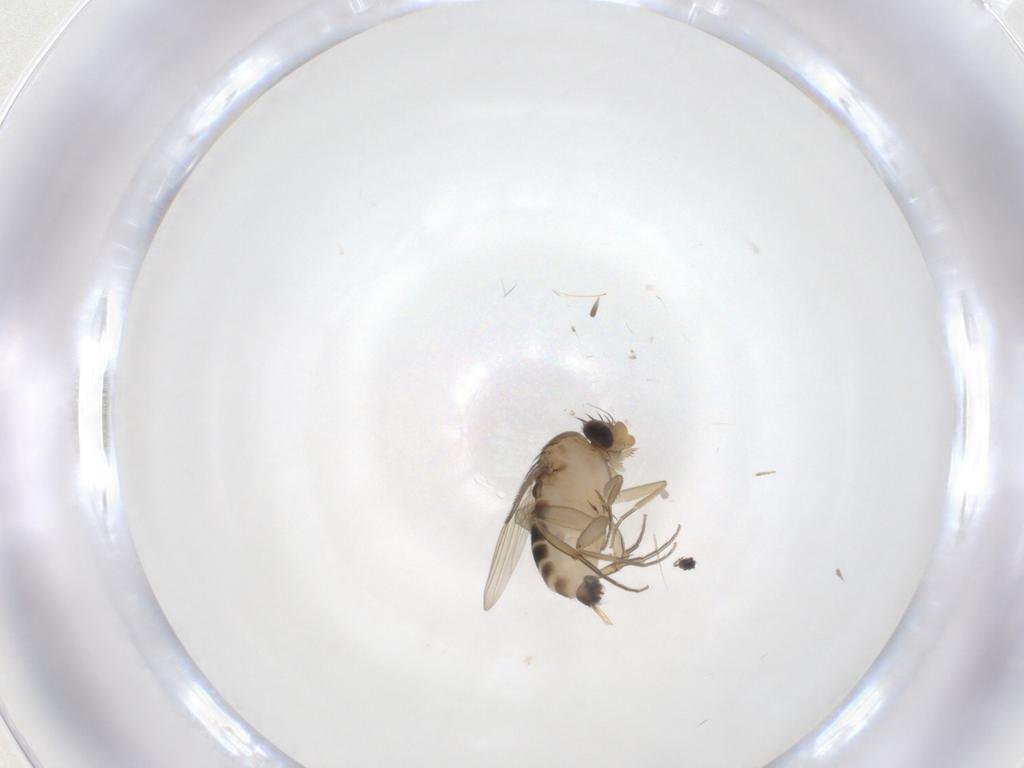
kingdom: Animalia
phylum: Arthropoda
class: Insecta
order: Diptera
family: Phoridae
